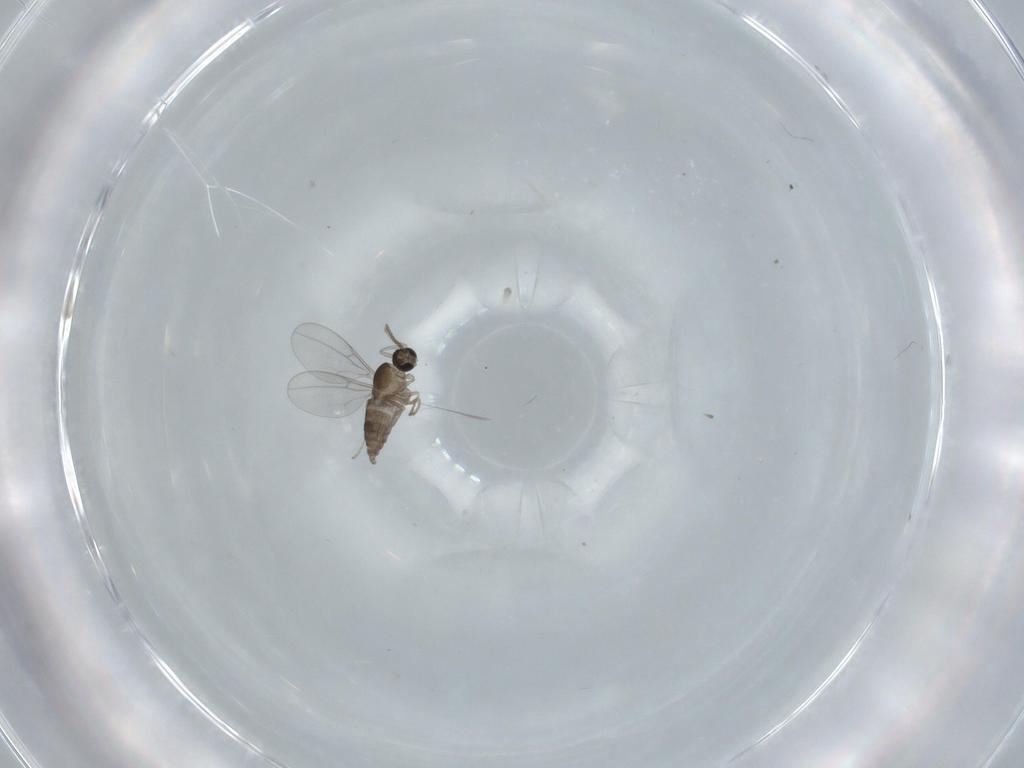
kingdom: Animalia
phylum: Arthropoda
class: Insecta
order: Diptera
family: Cecidomyiidae
